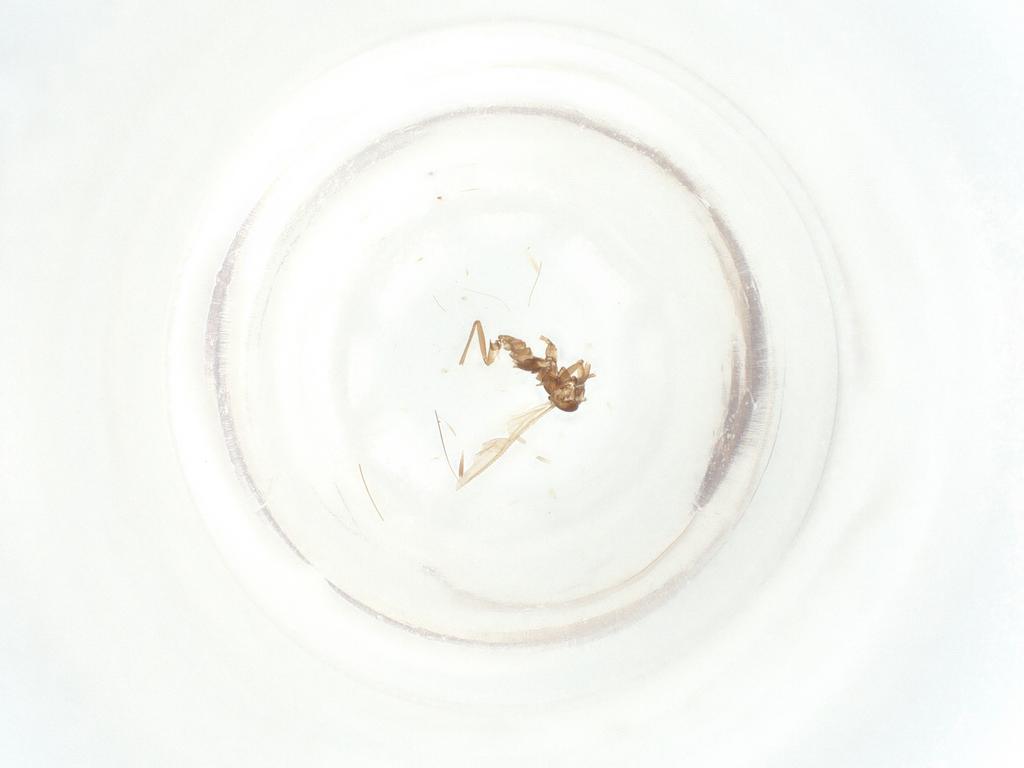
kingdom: Animalia
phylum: Arthropoda
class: Insecta
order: Diptera
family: Sciaridae
